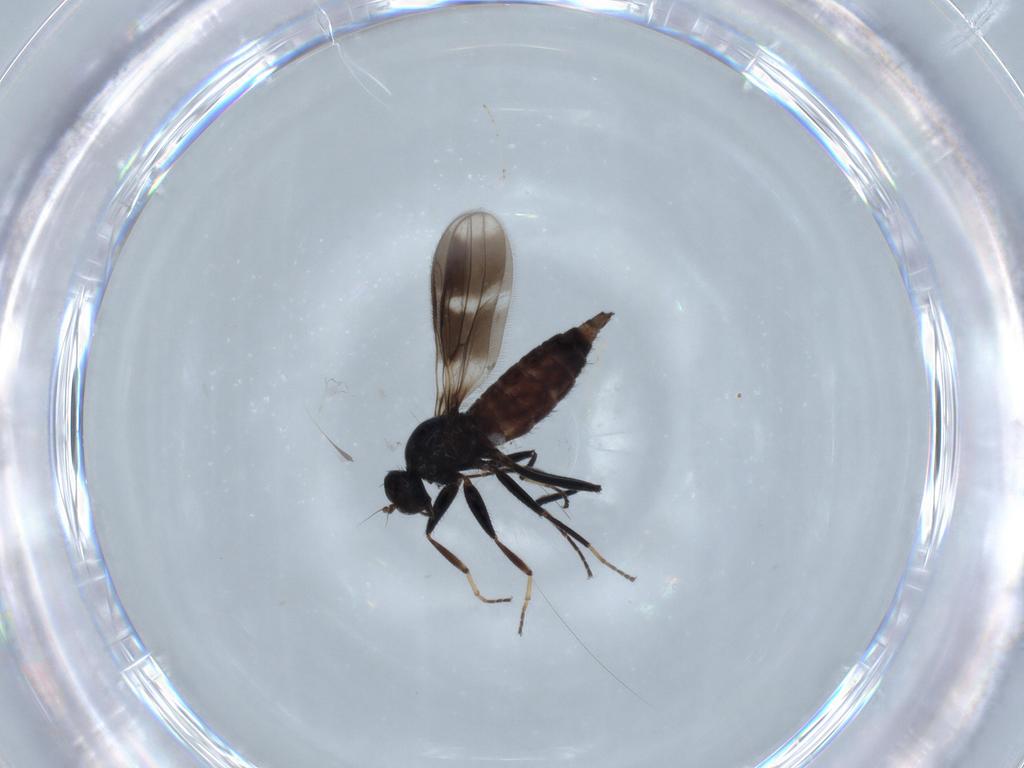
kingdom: Animalia
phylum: Arthropoda
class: Insecta
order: Diptera
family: Hybotidae
